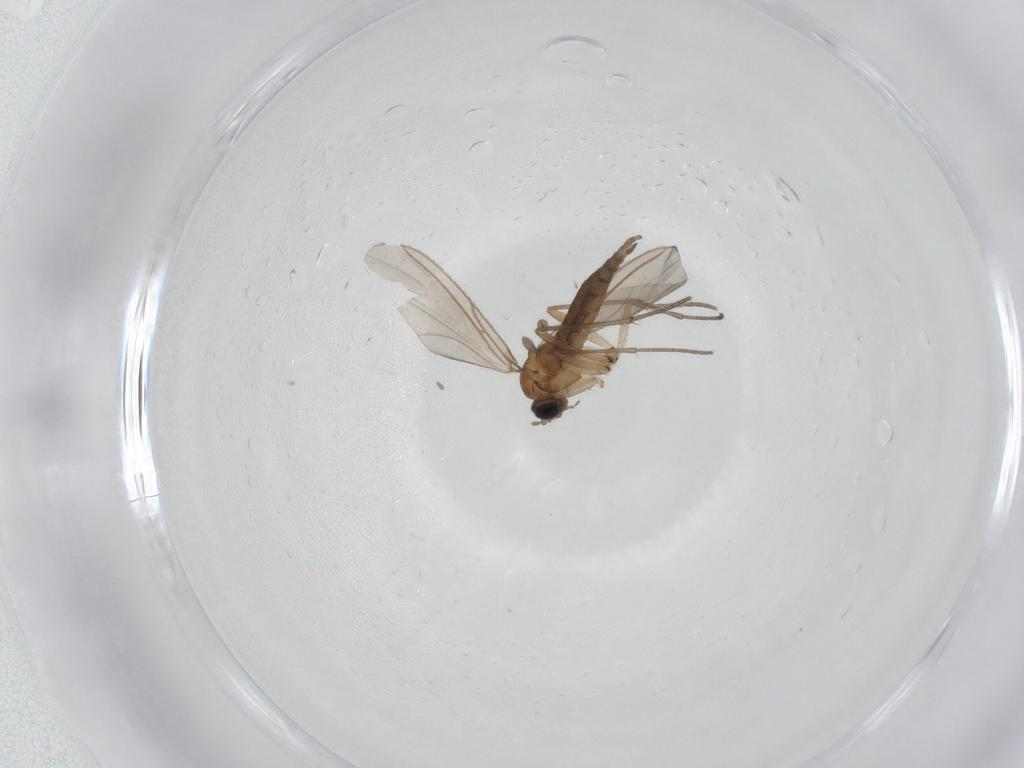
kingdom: Animalia
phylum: Arthropoda
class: Insecta
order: Diptera
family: Sciaridae
